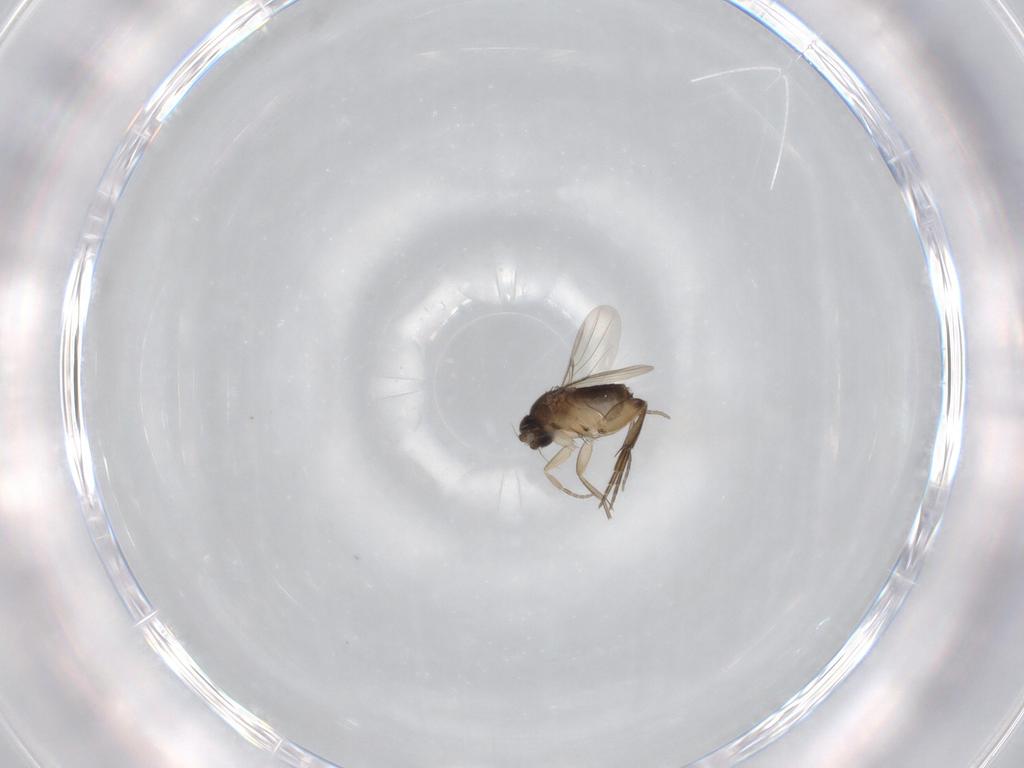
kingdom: Animalia
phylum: Arthropoda
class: Insecta
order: Diptera
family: Phoridae
